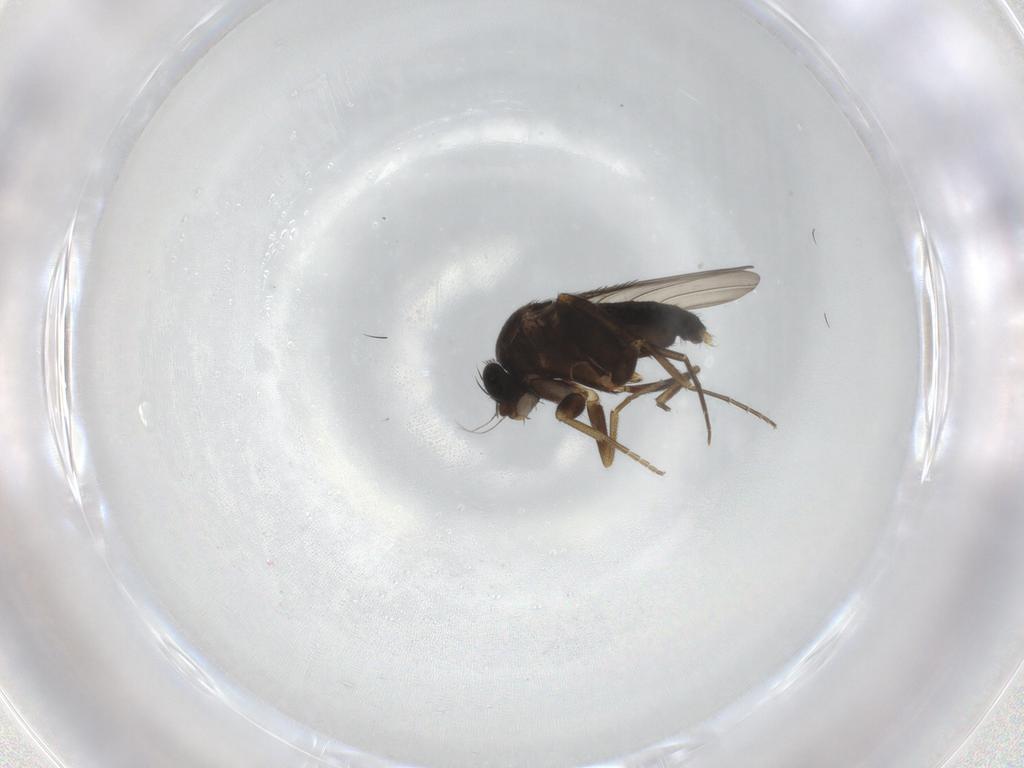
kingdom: Animalia
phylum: Arthropoda
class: Insecta
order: Diptera
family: Phoridae
